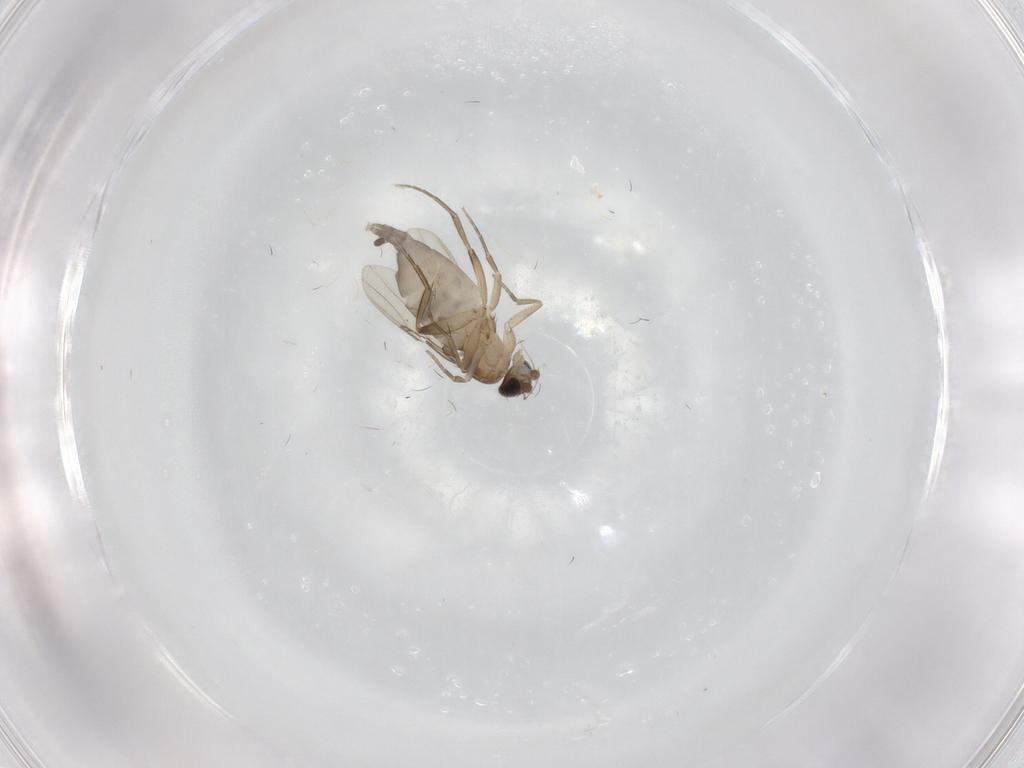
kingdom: Animalia
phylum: Arthropoda
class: Insecta
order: Diptera
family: Phoridae
